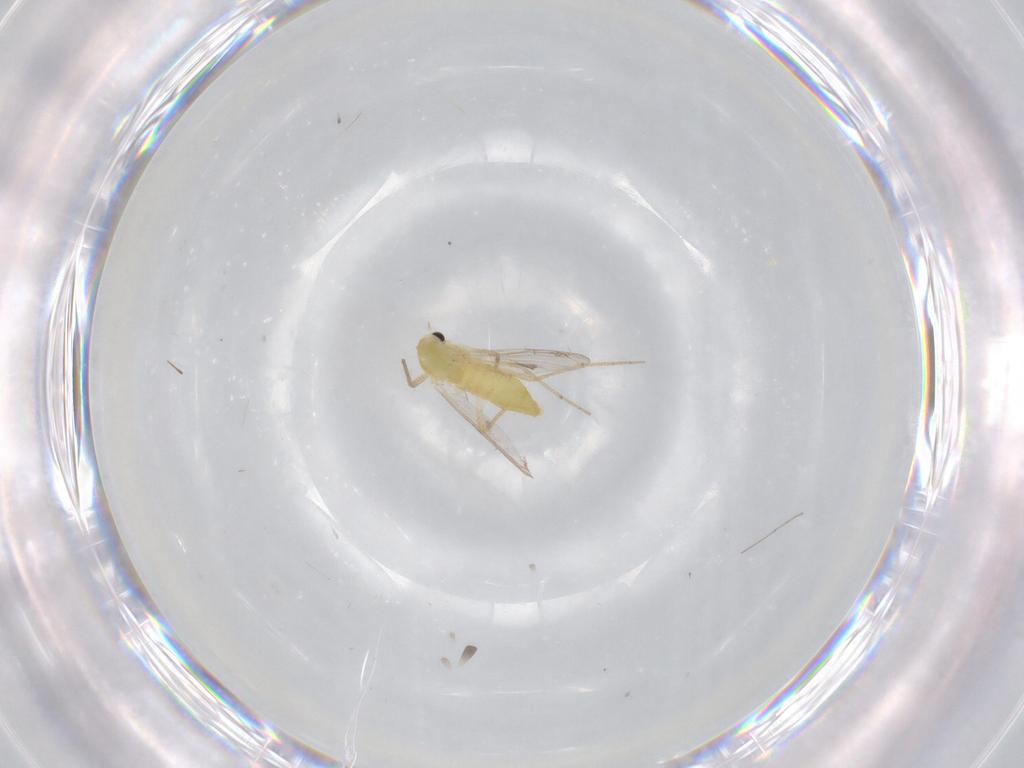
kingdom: Animalia
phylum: Arthropoda
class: Insecta
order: Diptera
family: Chironomidae
